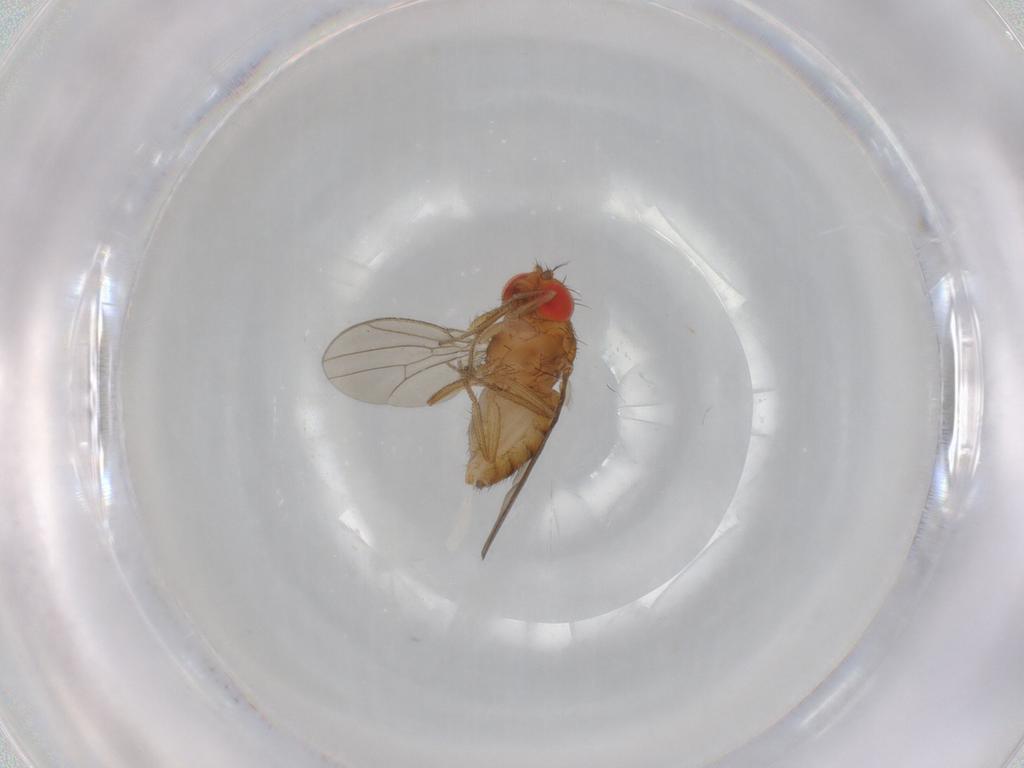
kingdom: Animalia
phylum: Arthropoda
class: Insecta
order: Diptera
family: Drosophilidae
